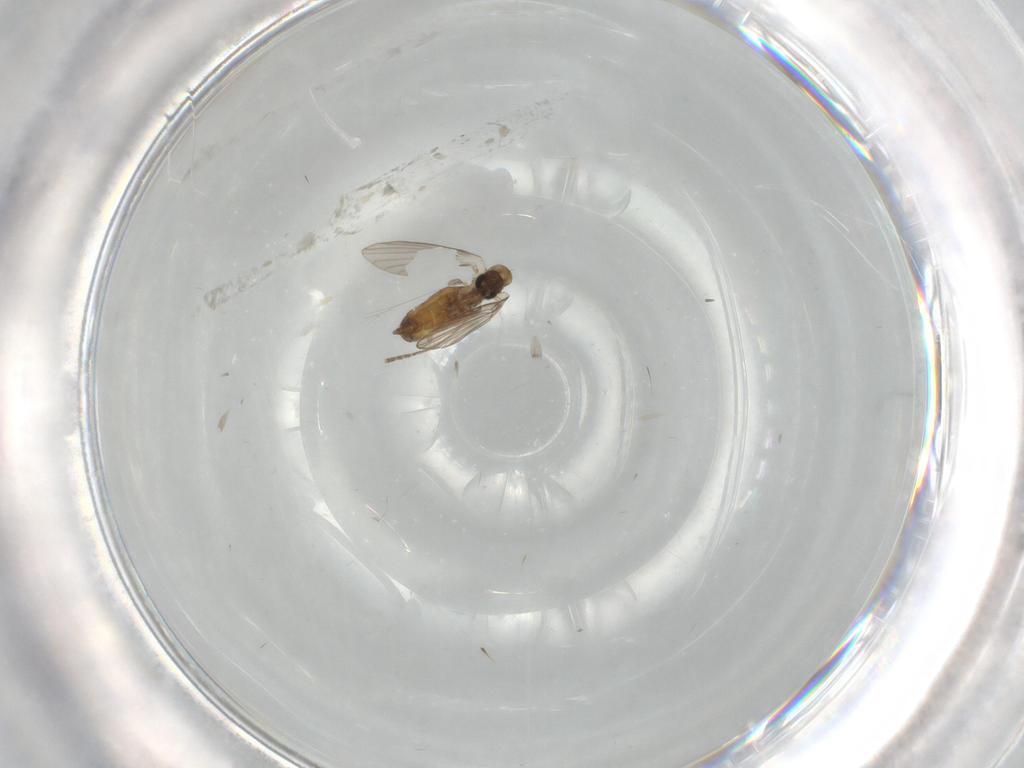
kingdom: Animalia
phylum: Arthropoda
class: Insecta
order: Diptera
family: Psychodidae
